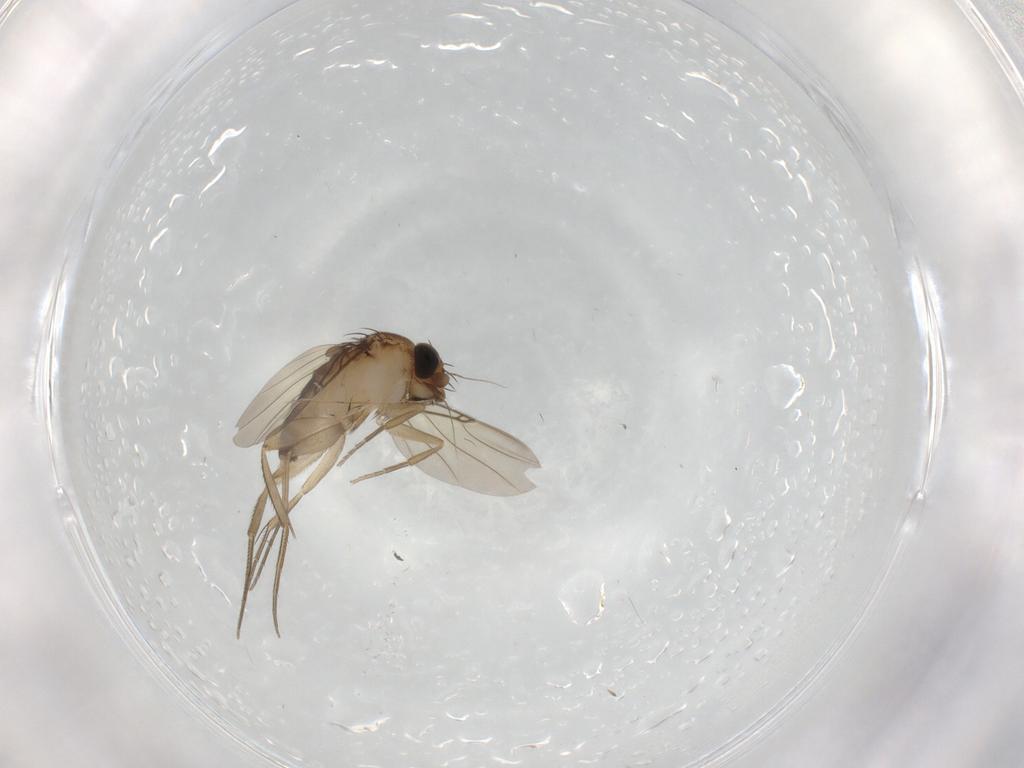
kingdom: Animalia
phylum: Arthropoda
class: Insecta
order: Diptera
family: Phoridae
